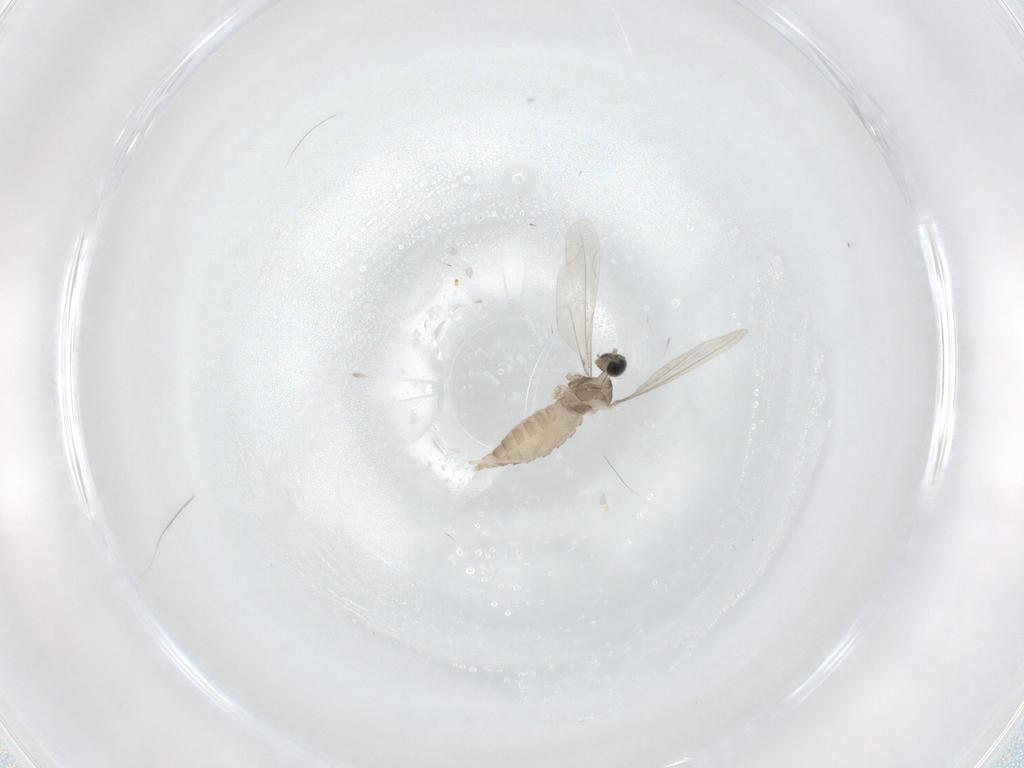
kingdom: Animalia
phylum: Arthropoda
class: Insecta
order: Diptera
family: Cecidomyiidae
